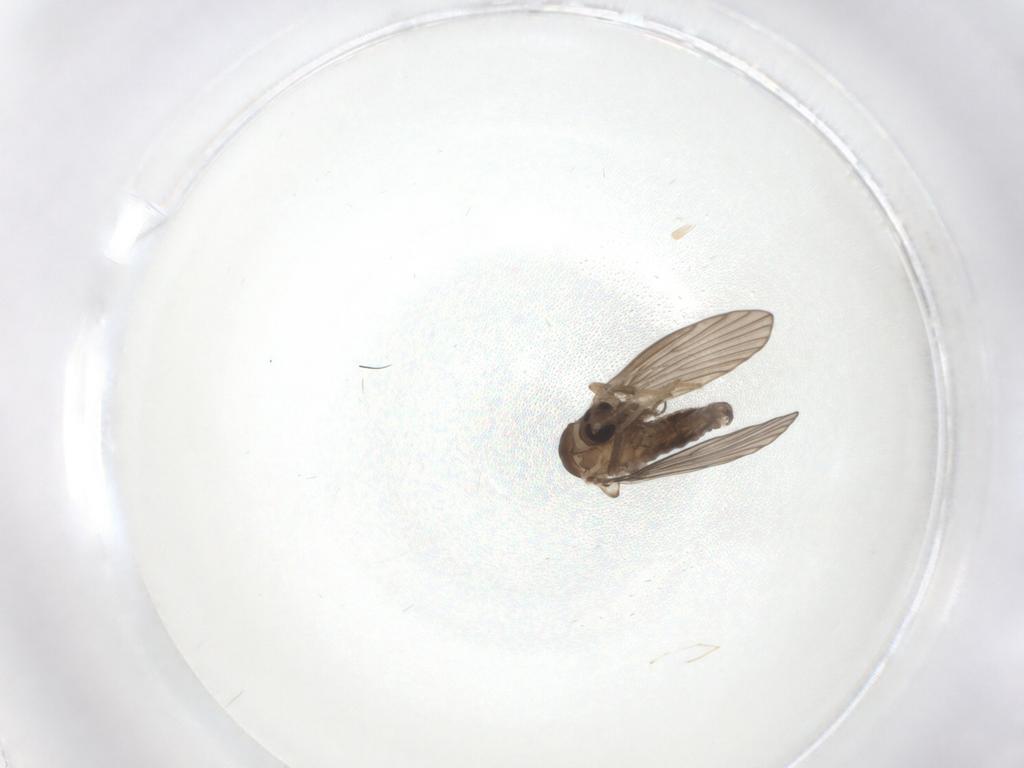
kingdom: Animalia
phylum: Arthropoda
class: Insecta
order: Diptera
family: Psychodidae
